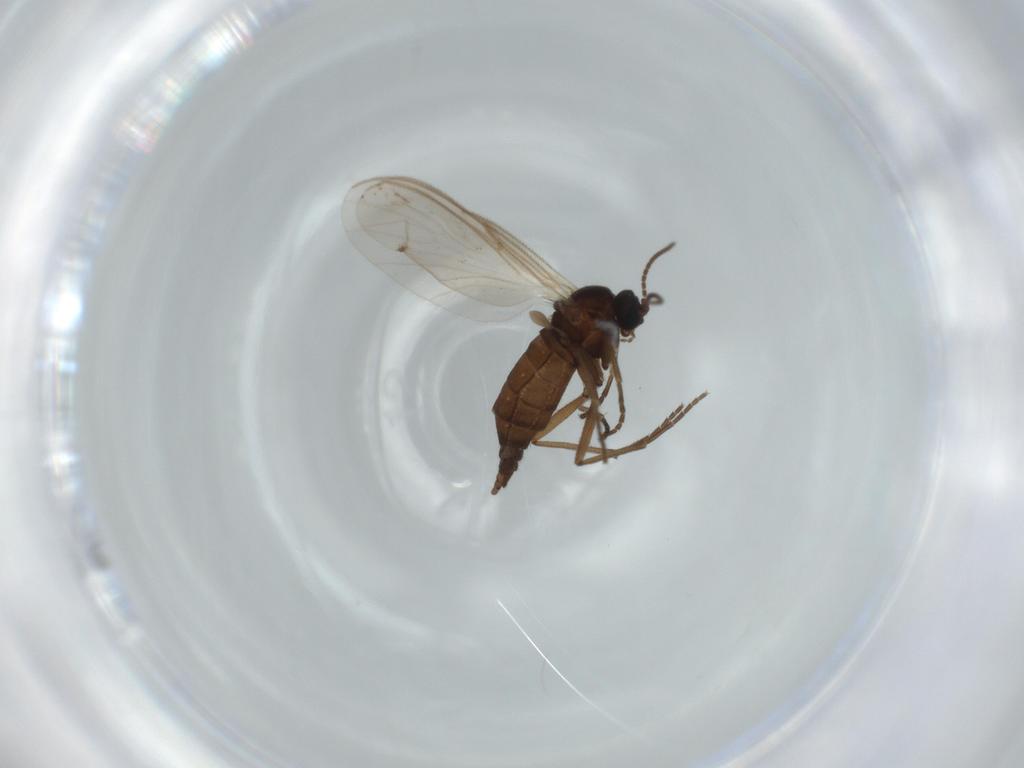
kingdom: Animalia
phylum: Arthropoda
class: Insecta
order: Diptera
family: Sciaridae
